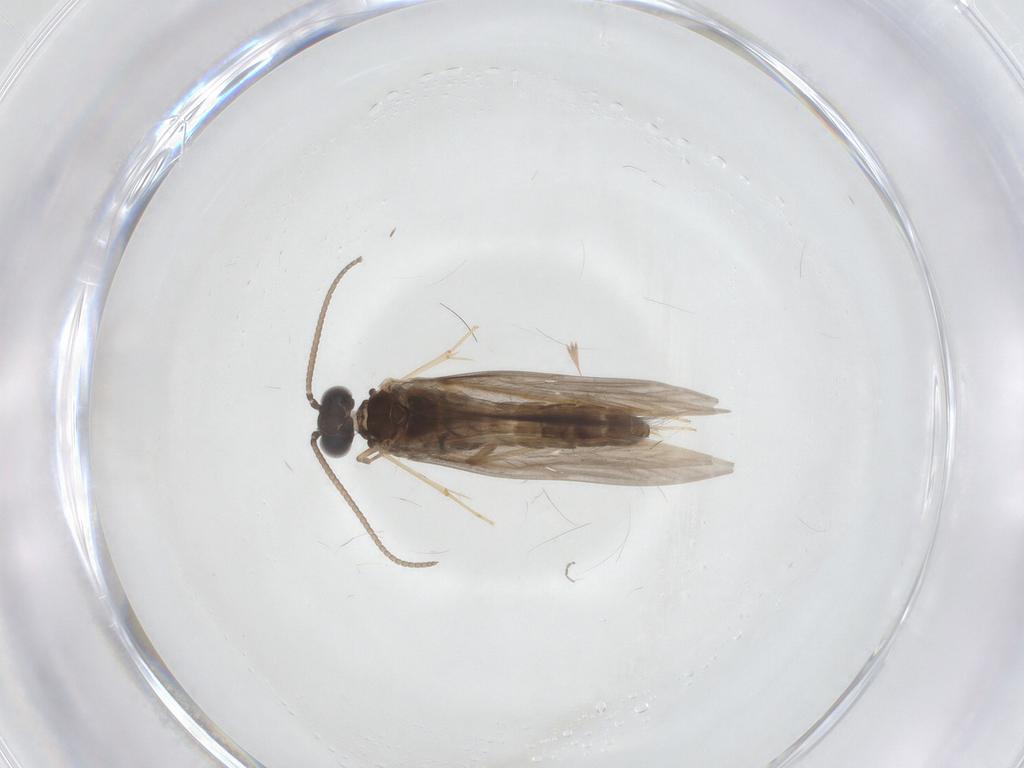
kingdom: Animalia
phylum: Arthropoda
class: Insecta
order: Trichoptera
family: Hydroptilidae
